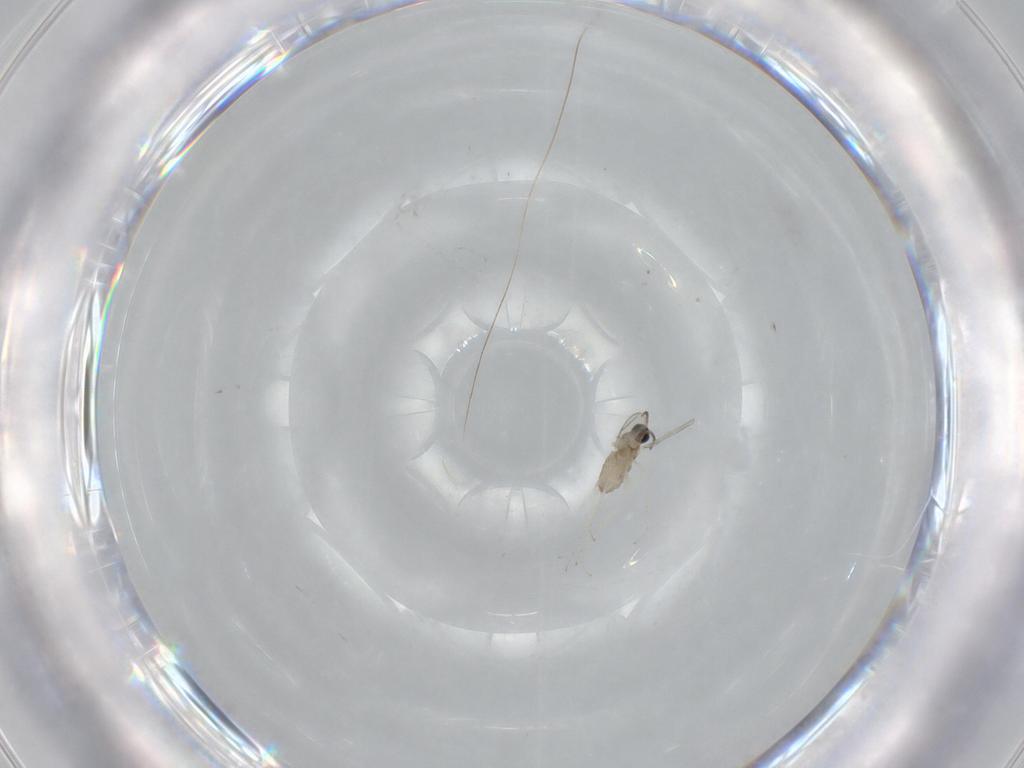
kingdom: Animalia
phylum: Arthropoda
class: Insecta
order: Diptera
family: Cecidomyiidae
